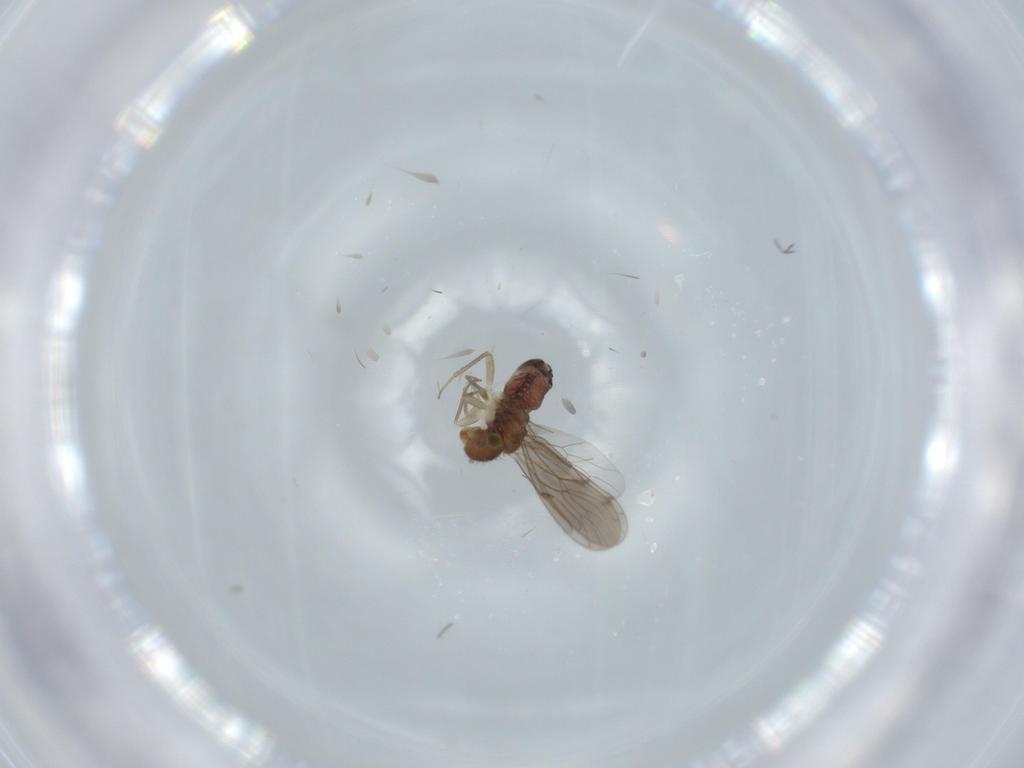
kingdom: Animalia
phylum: Arthropoda
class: Insecta
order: Psocodea
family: Ectopsocidae
